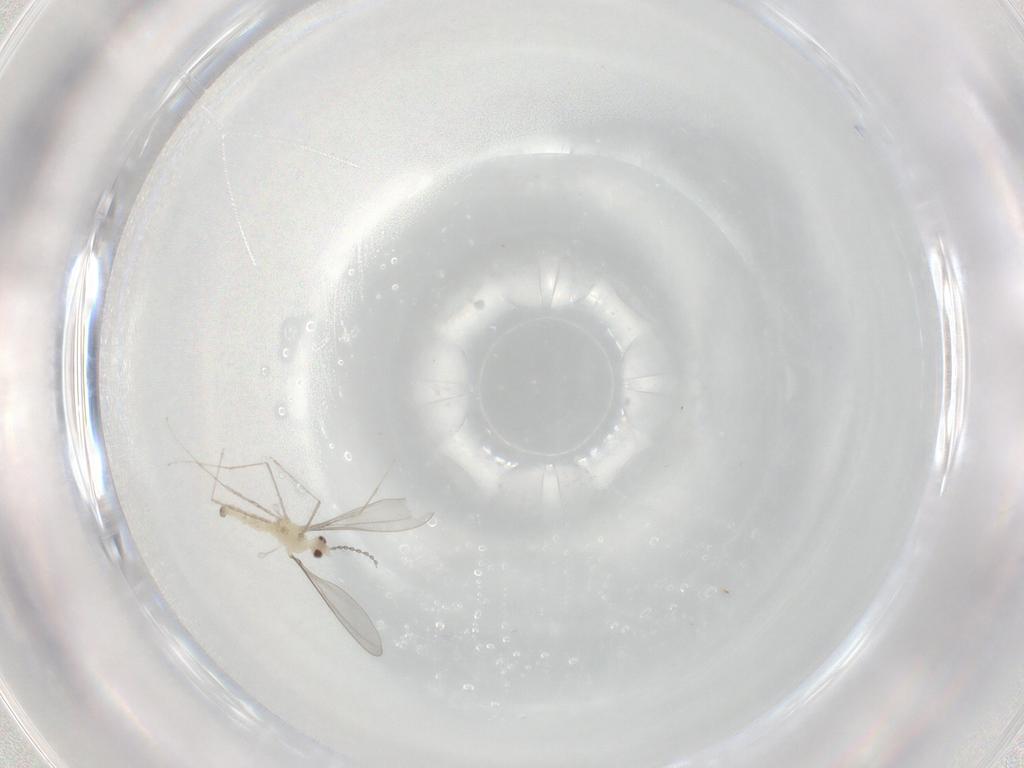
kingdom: Animalia
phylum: Arthropoda
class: Insecta
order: Diptera
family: Cecidomyiidae
